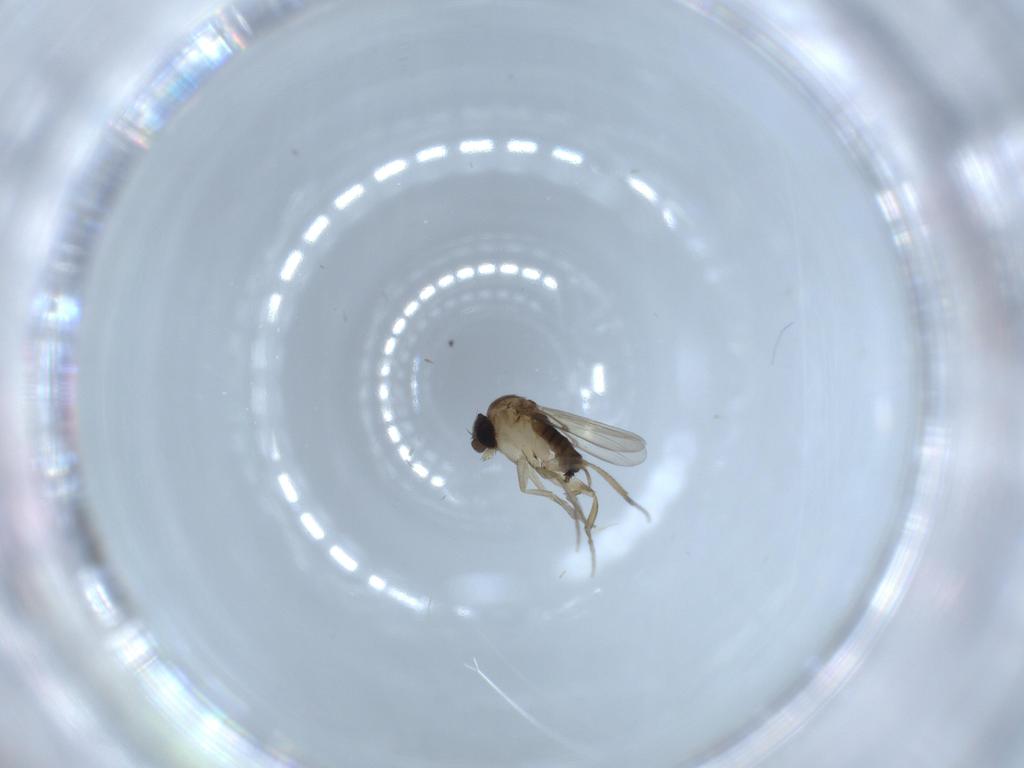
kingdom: Animalia
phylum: Arthropoda
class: Insecta
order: Diptera
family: Phoridae
